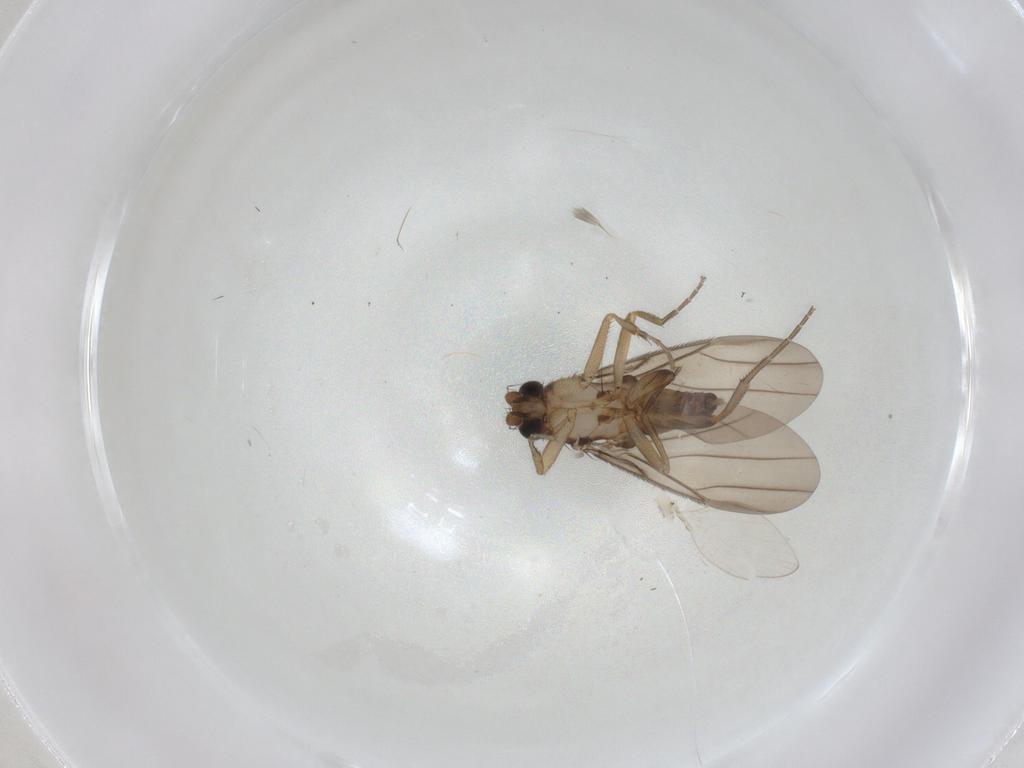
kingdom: Animalia
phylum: Arthropoda
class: Insecta
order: Diptera
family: Phoridae
